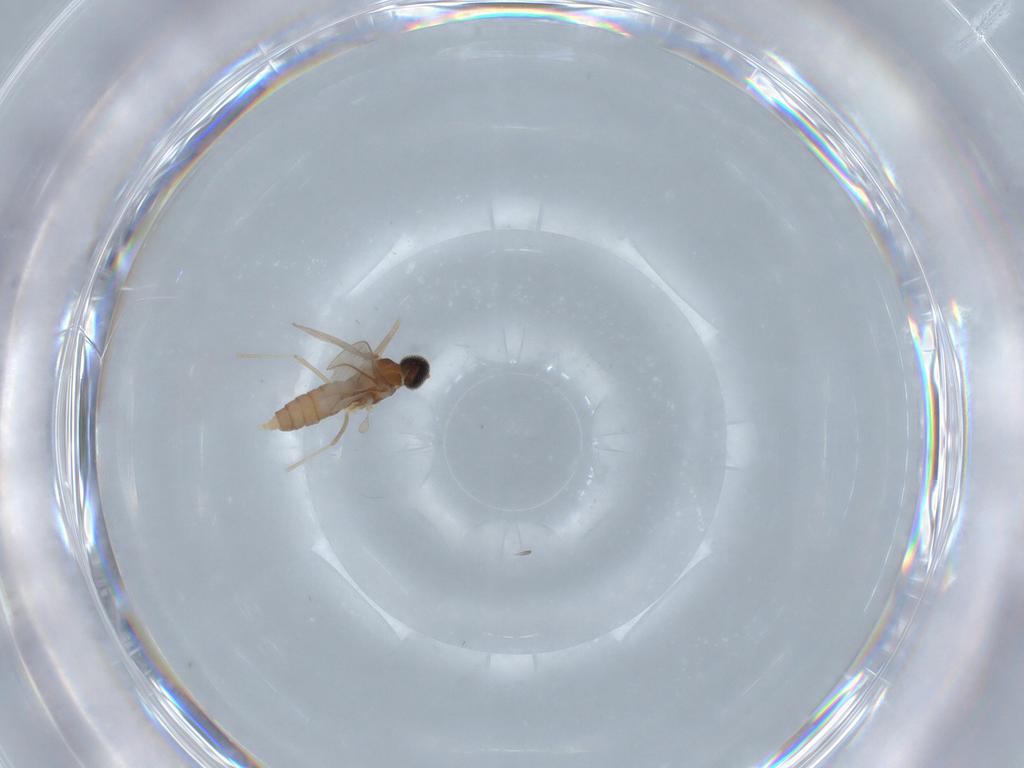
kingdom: Animalia
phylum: Arthropoda
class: Insecta
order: Diptera
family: Cecidomyiidae
